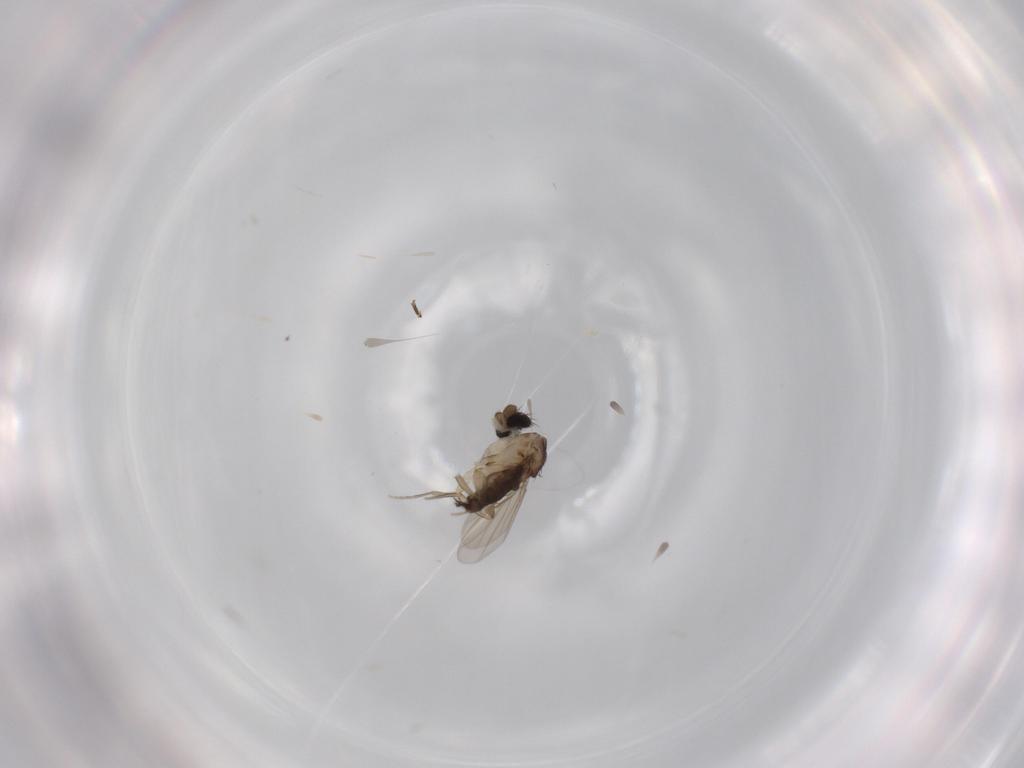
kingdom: Animalia
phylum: Arthropoda
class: Insecta
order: Diptera
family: Phoridae
